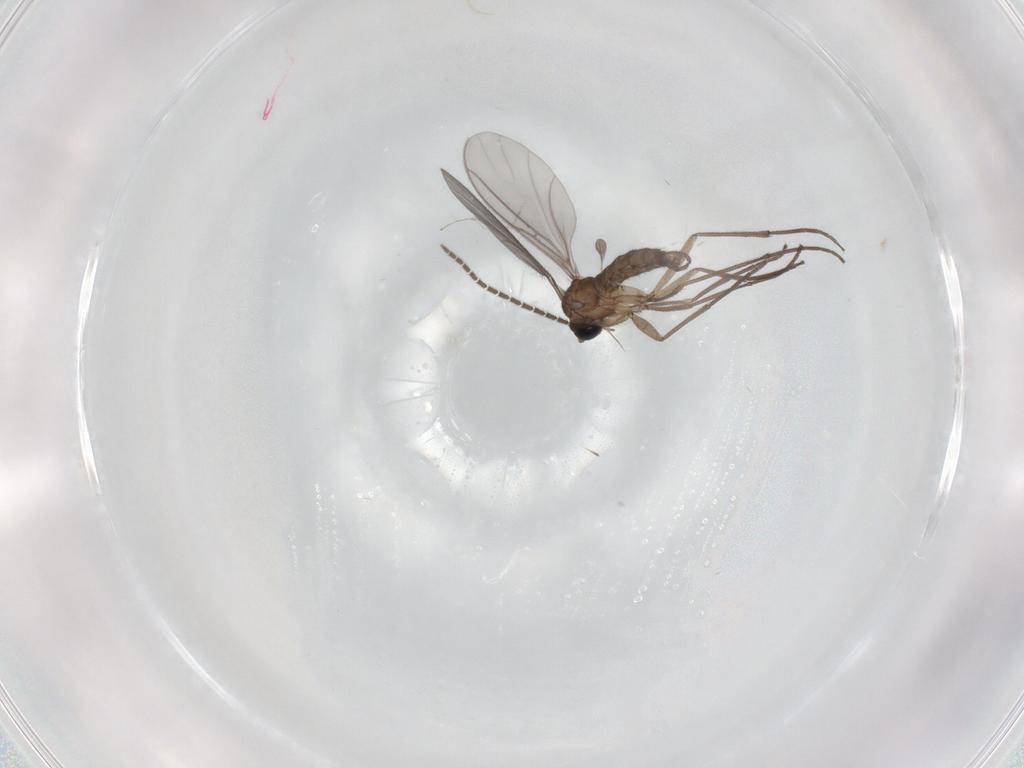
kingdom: Animalia
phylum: Arthropoda
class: Insecta
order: Diptera
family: Sciaridae
